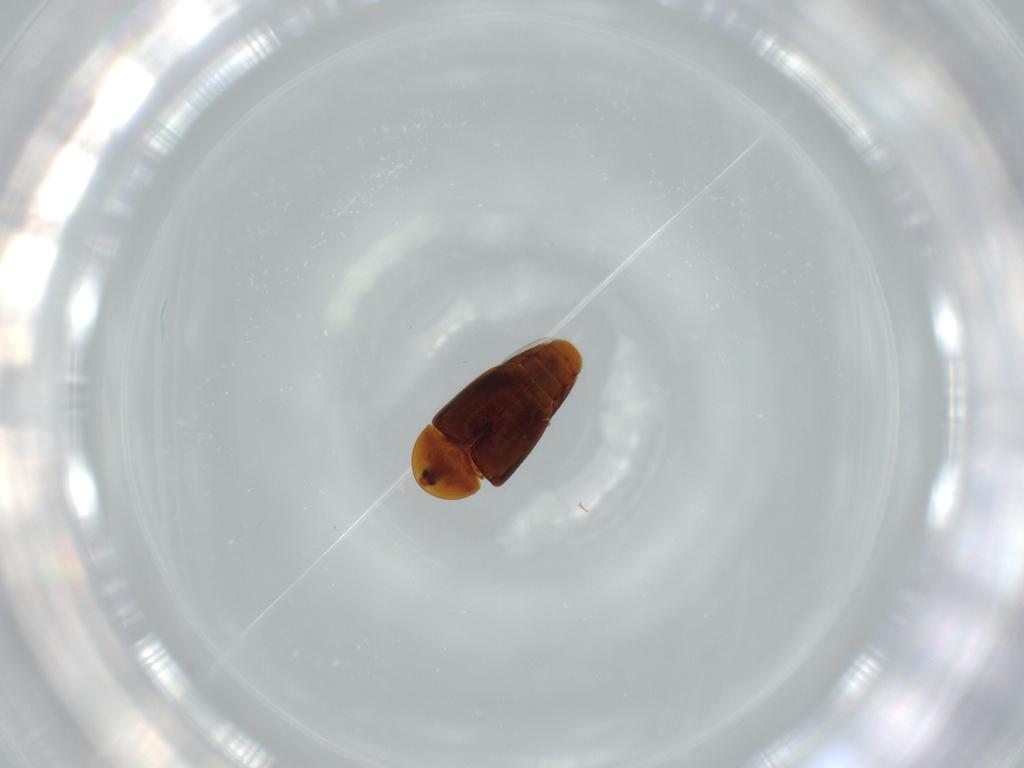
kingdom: Animalia
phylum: Arthropoda
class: Insecta
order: Coleoptera
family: Corylophidae
